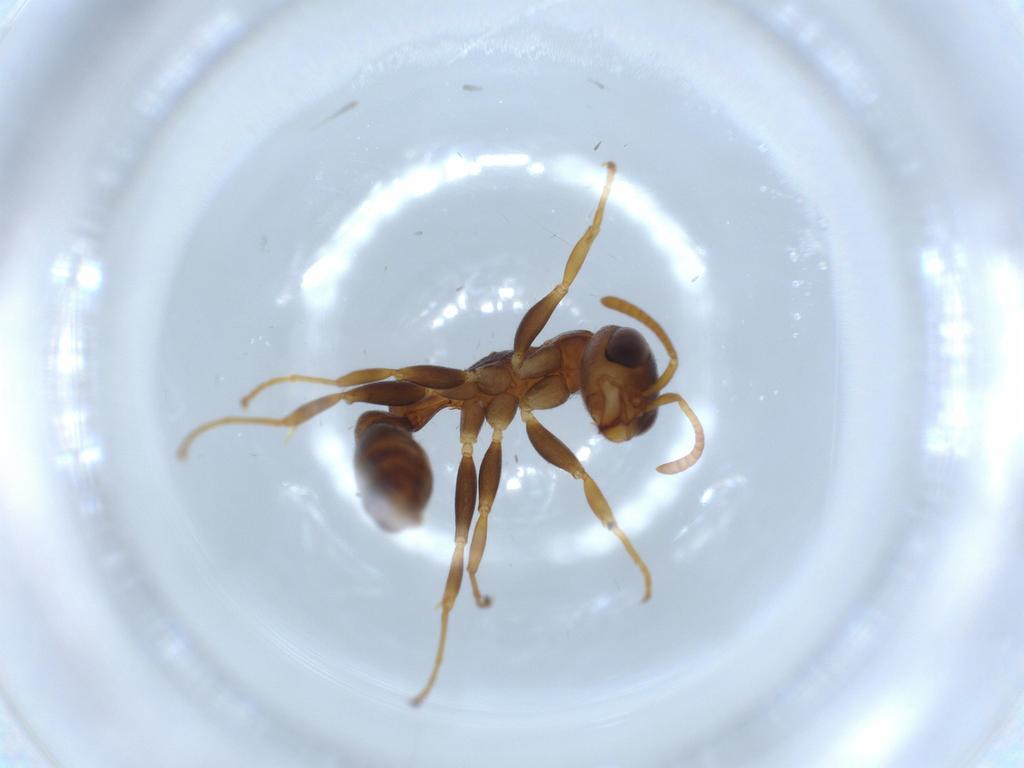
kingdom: Animalia
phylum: Arthropoda
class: Insecta
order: Hymenoptera
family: Formicidae
